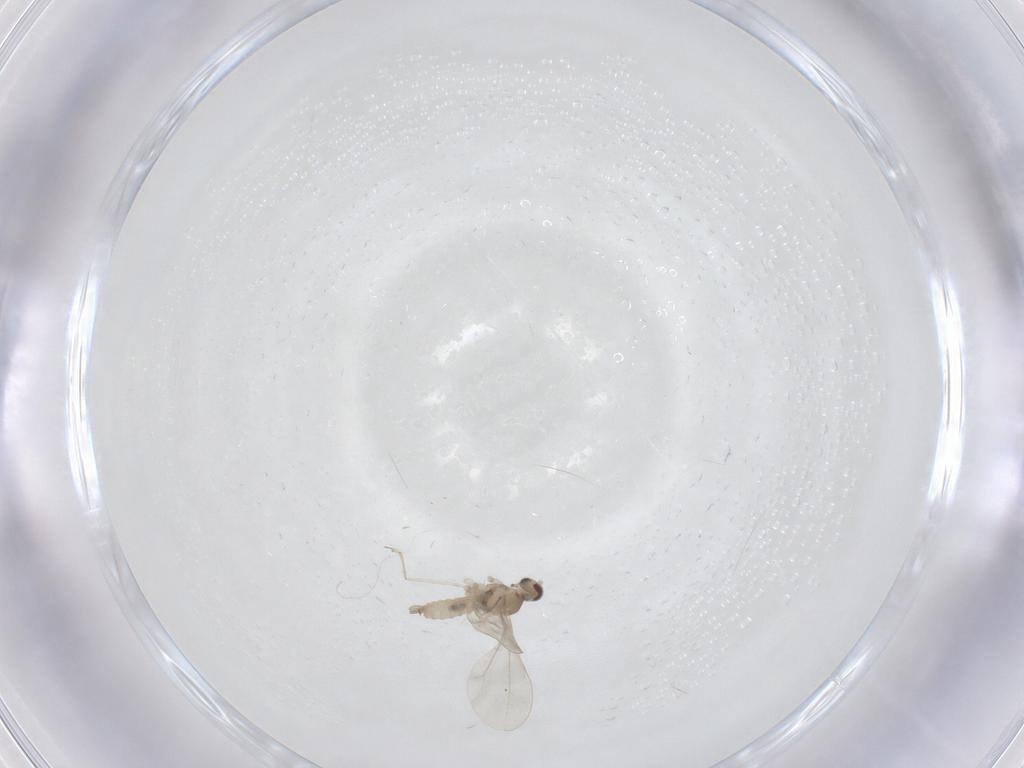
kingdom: Animalia
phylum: Arthropoda
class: Insecta
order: Diptera
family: Cecidomyiidae
